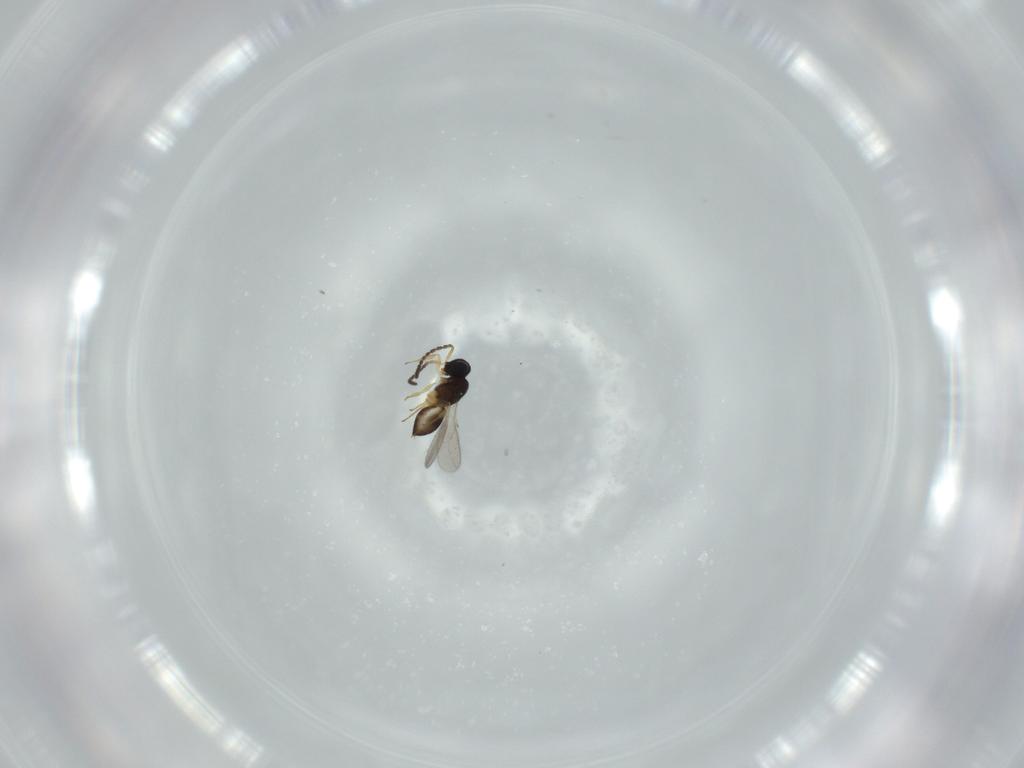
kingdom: Animalia
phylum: Arthropoda
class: Insecta
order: Hymenoptera
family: Scelionidae
